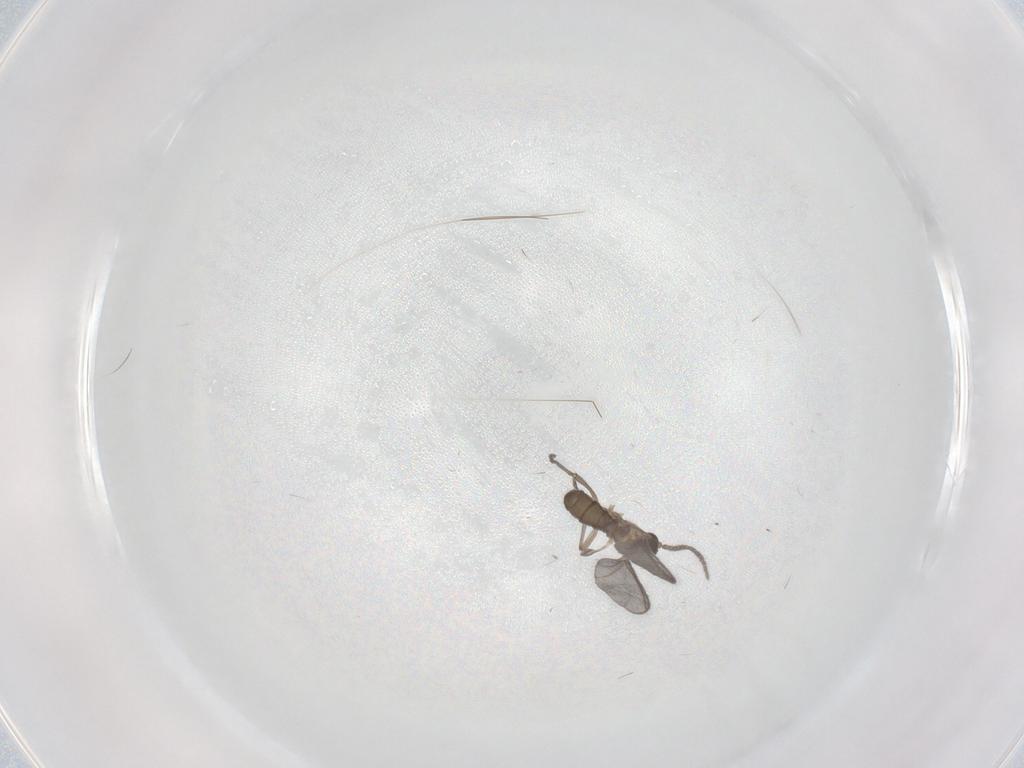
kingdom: Animalia
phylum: Arthropoda
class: Insecta
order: Diptera
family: Sciaridae
